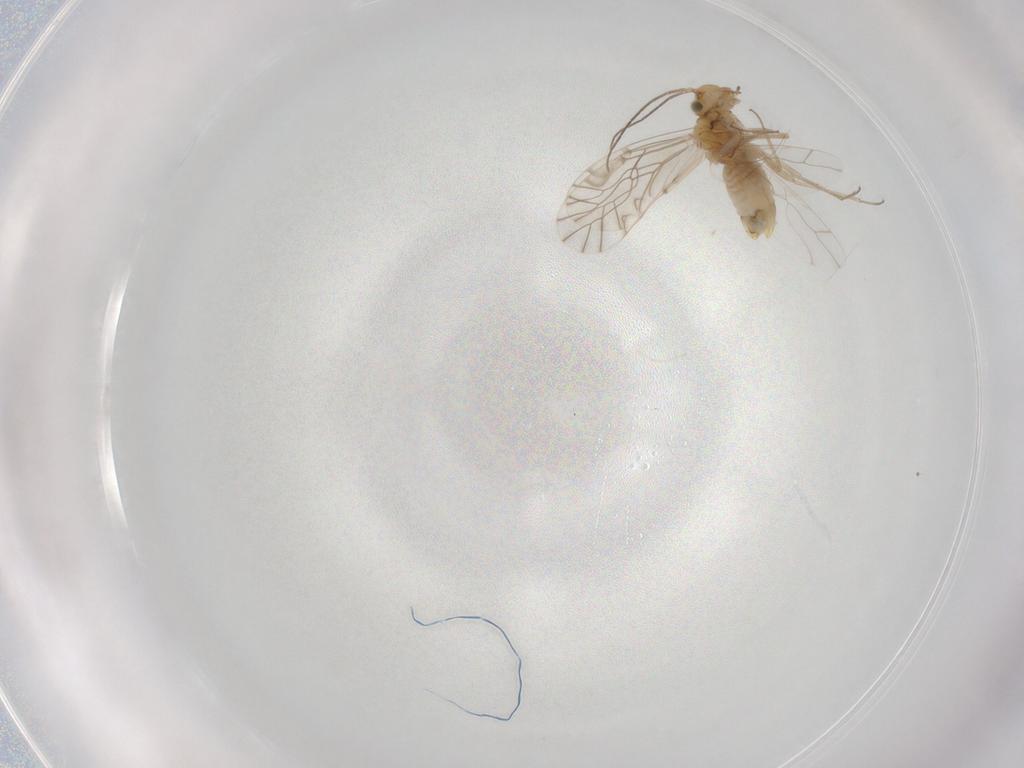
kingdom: Animalia
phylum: Arthropoda
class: Insecta
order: Psocodea
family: Lachesillidae
